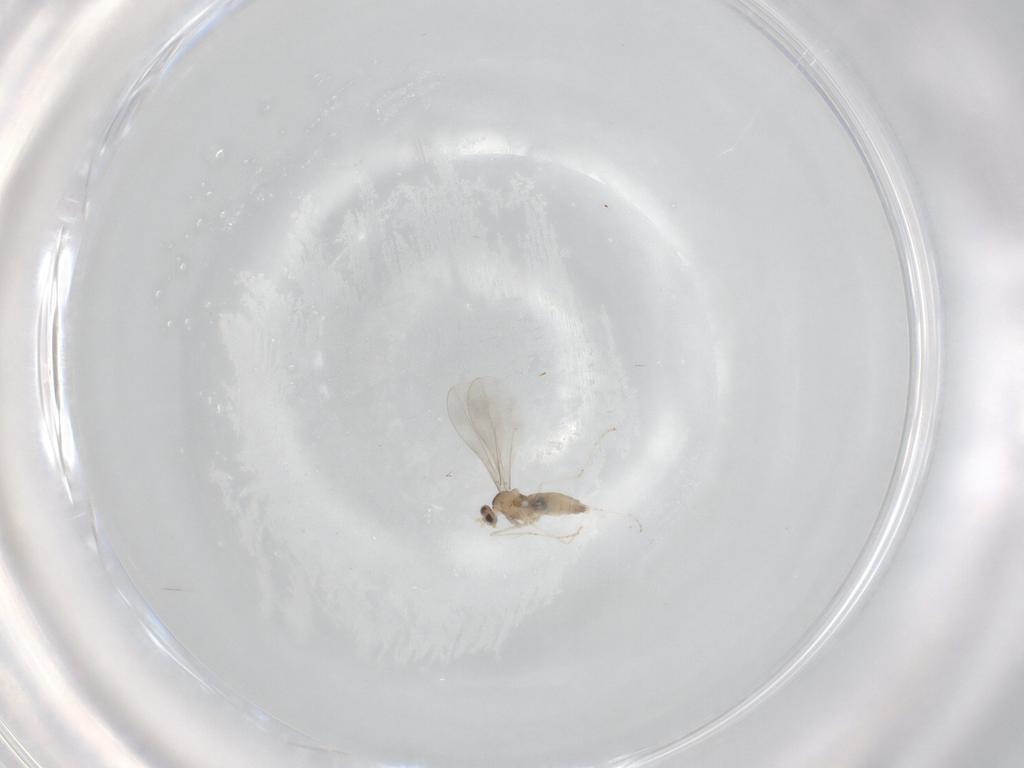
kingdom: Animalia
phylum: Arthropoda
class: Insecta
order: Diptera
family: Cecidomyiidae
